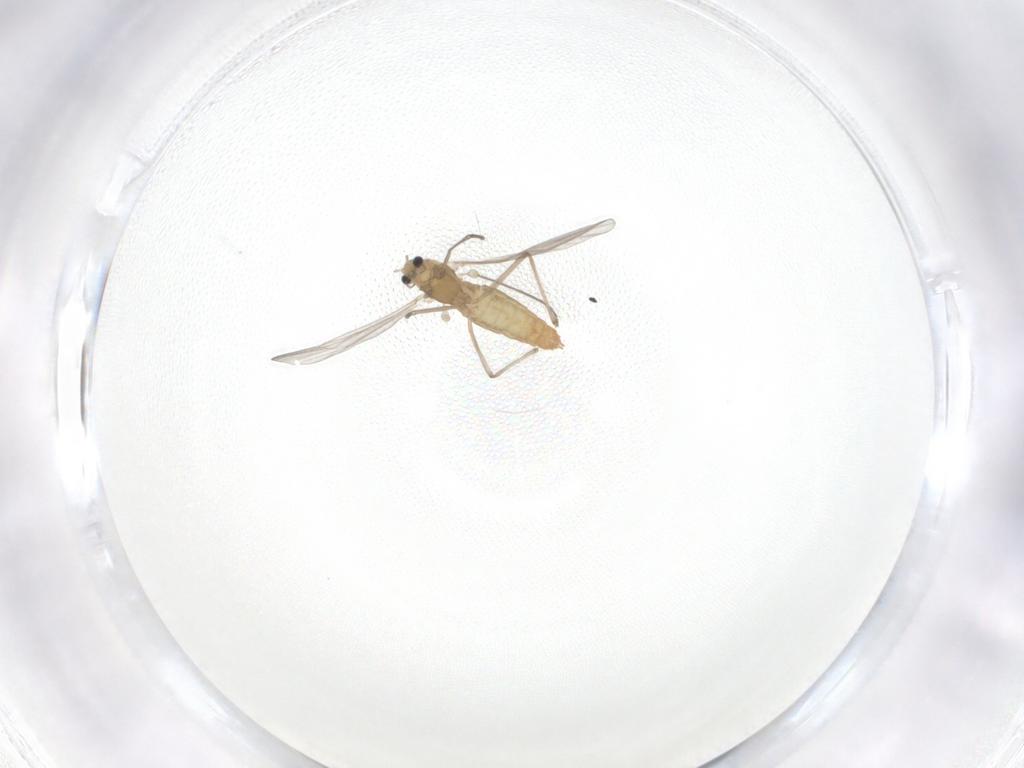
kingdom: Animalia
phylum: Arthropoda
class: Insecta
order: Diptera
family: Chironomidae
